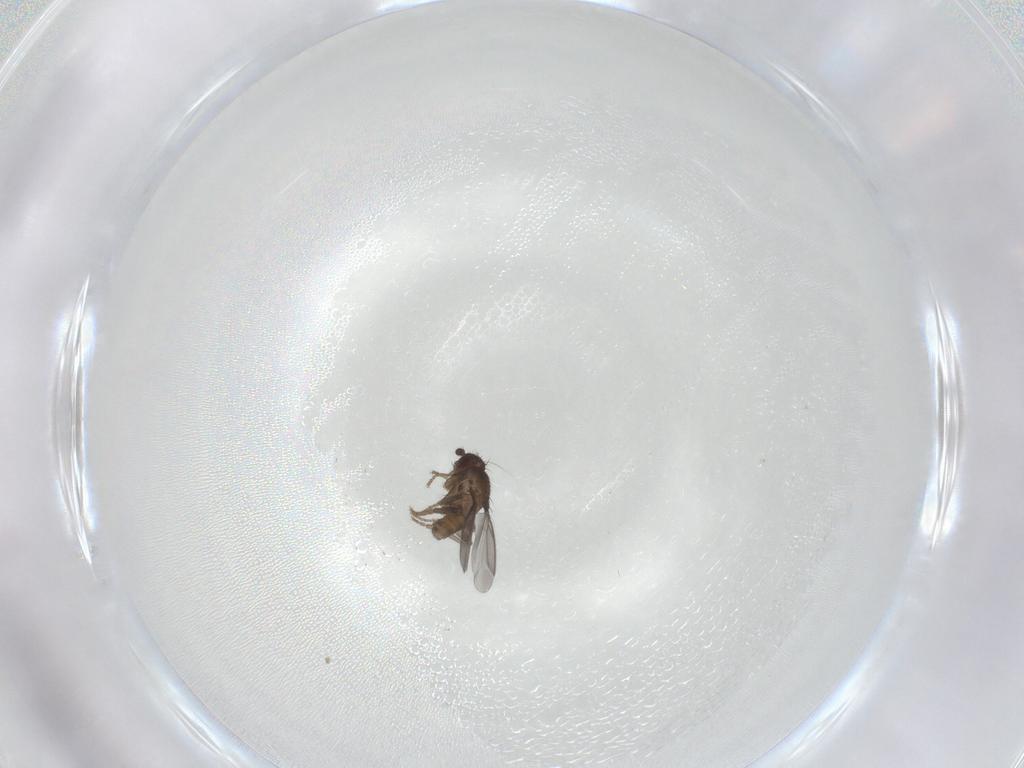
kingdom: Animalia
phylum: Arthropoda
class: Insecta
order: Diptera
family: Sphaeroceridae
